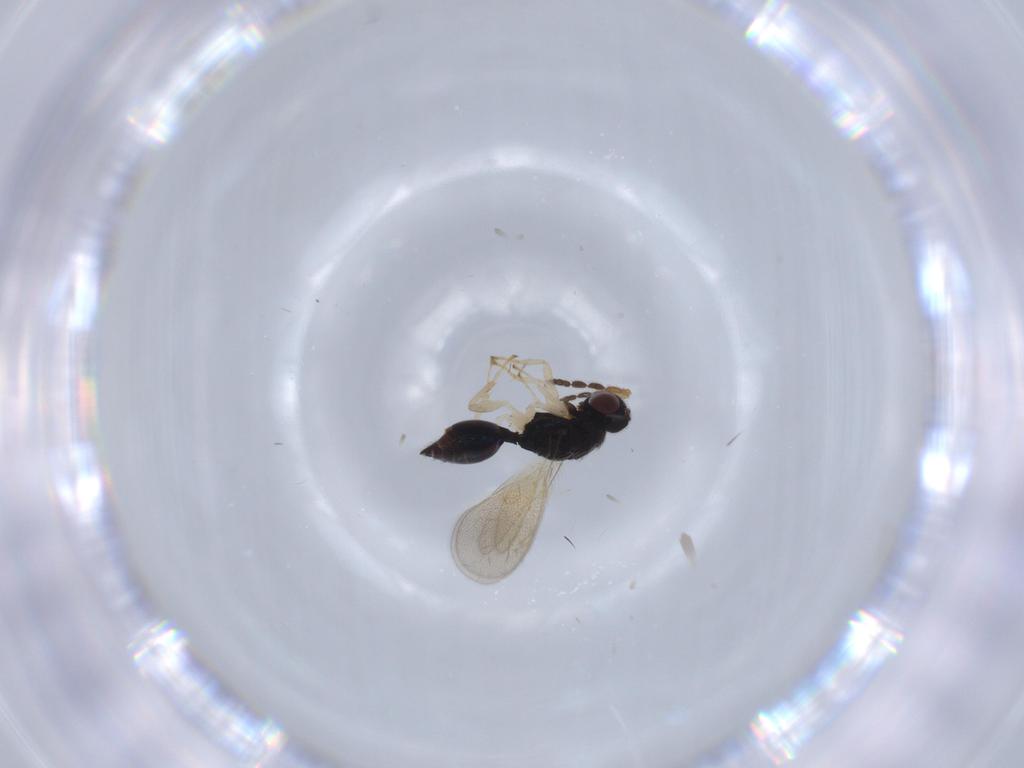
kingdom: Animalia
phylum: Arthropoda
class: Insecta
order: Hymenoptera
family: Eulophidae
